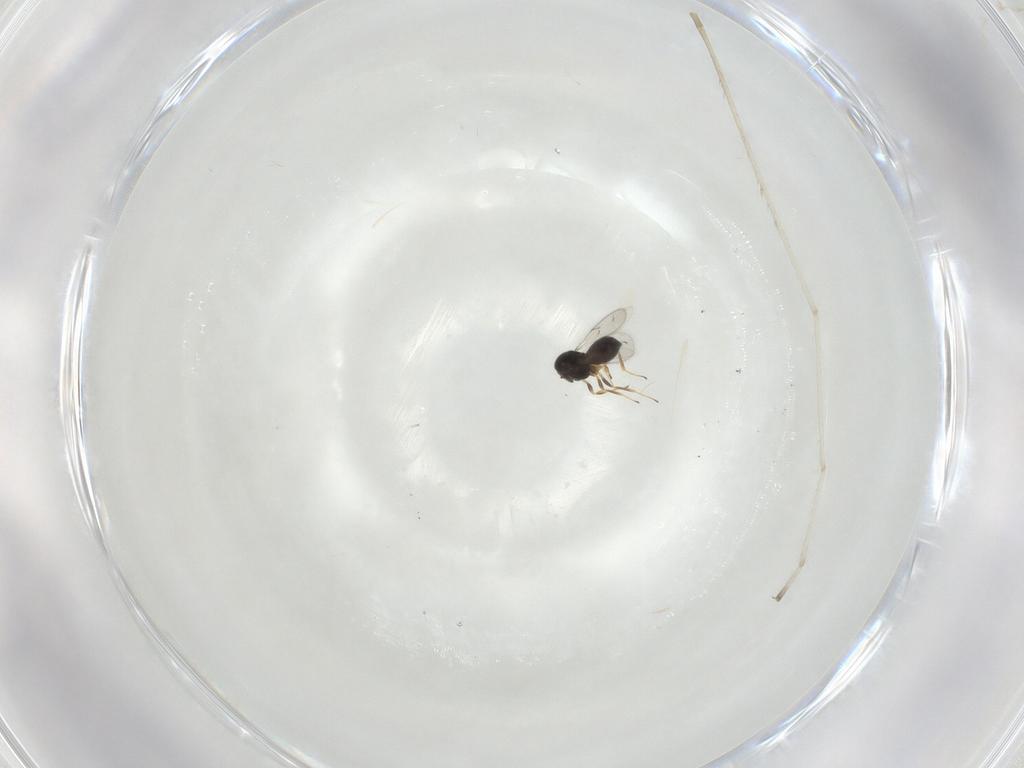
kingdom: Animalia
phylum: Arthropoda
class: Insecta
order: Hymenoptera
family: Scelionidae
